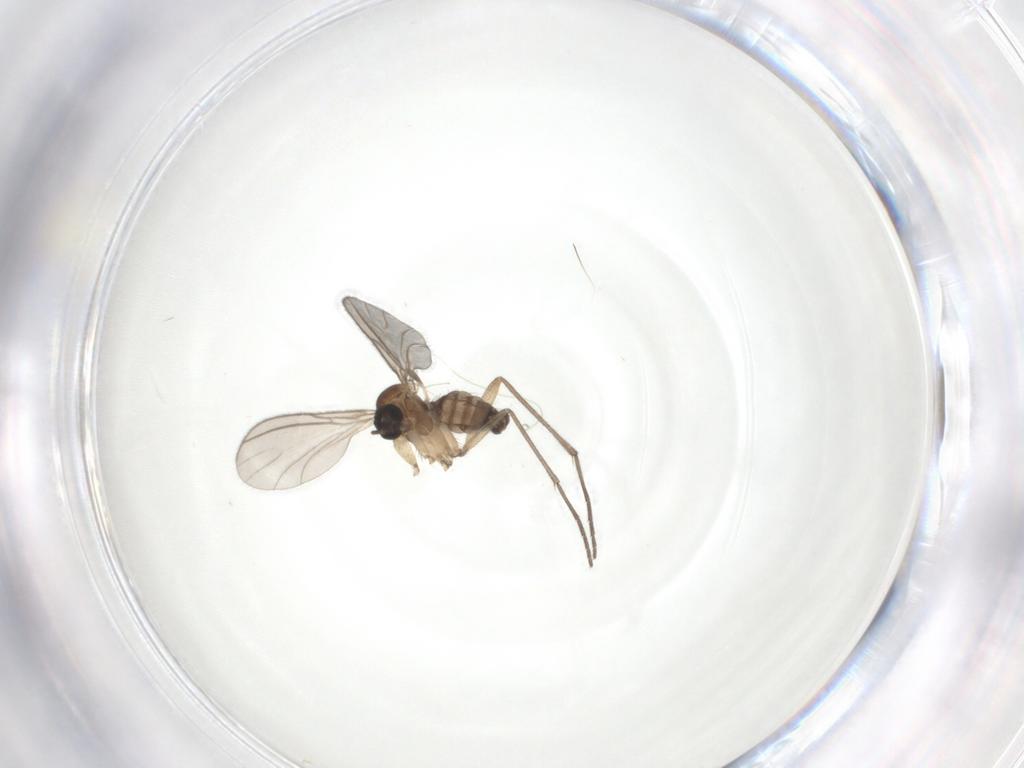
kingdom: Animalia
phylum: Arthropoda
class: Insecta
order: Diptera
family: Sciaridae
